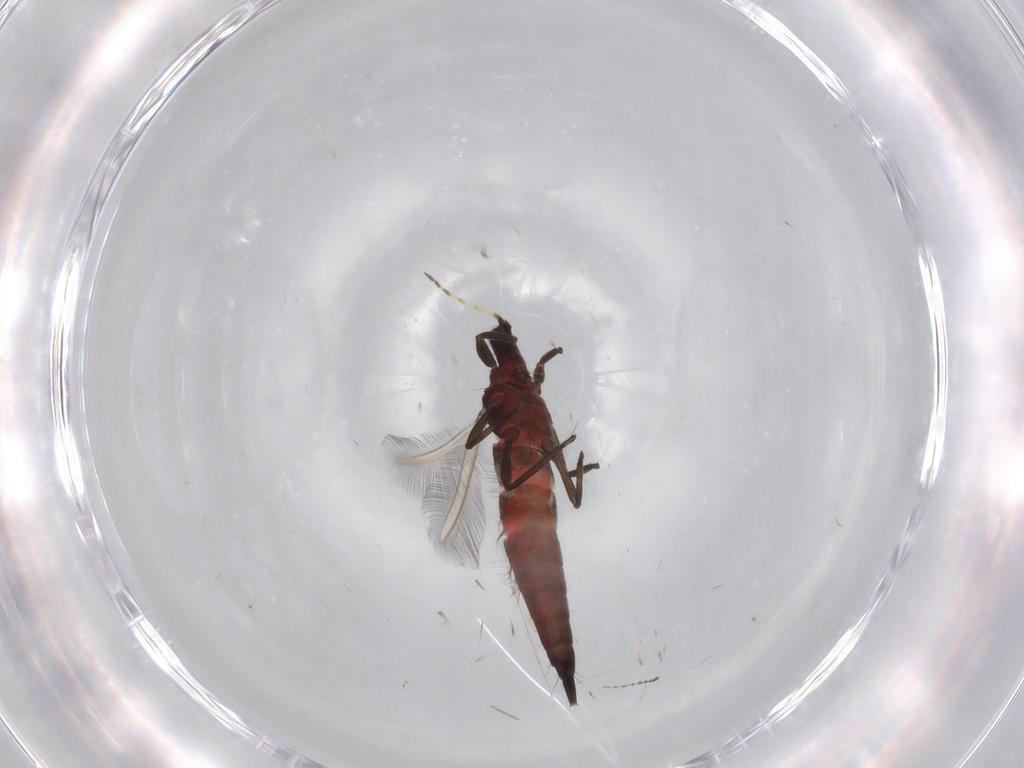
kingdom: Animalia
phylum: Arthropoda
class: Insecta
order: Thysanoptera
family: Phlaeothripidae
